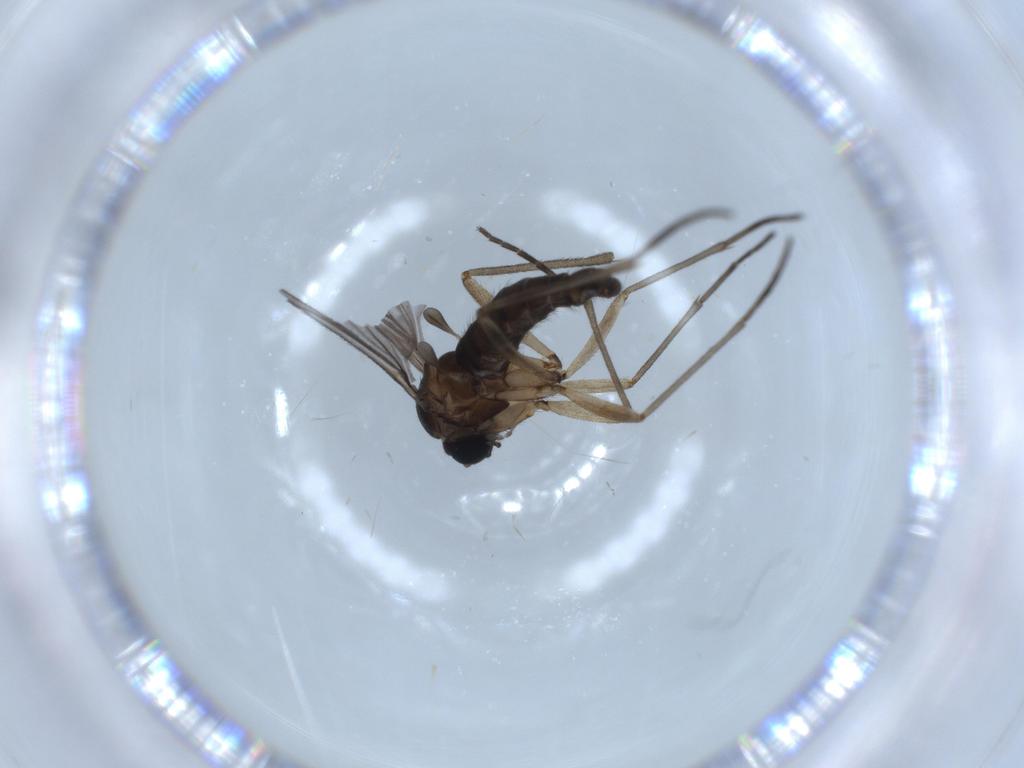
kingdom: Animalia
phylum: Arthropoda
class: Insecta
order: Diptera
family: Sciaridae
